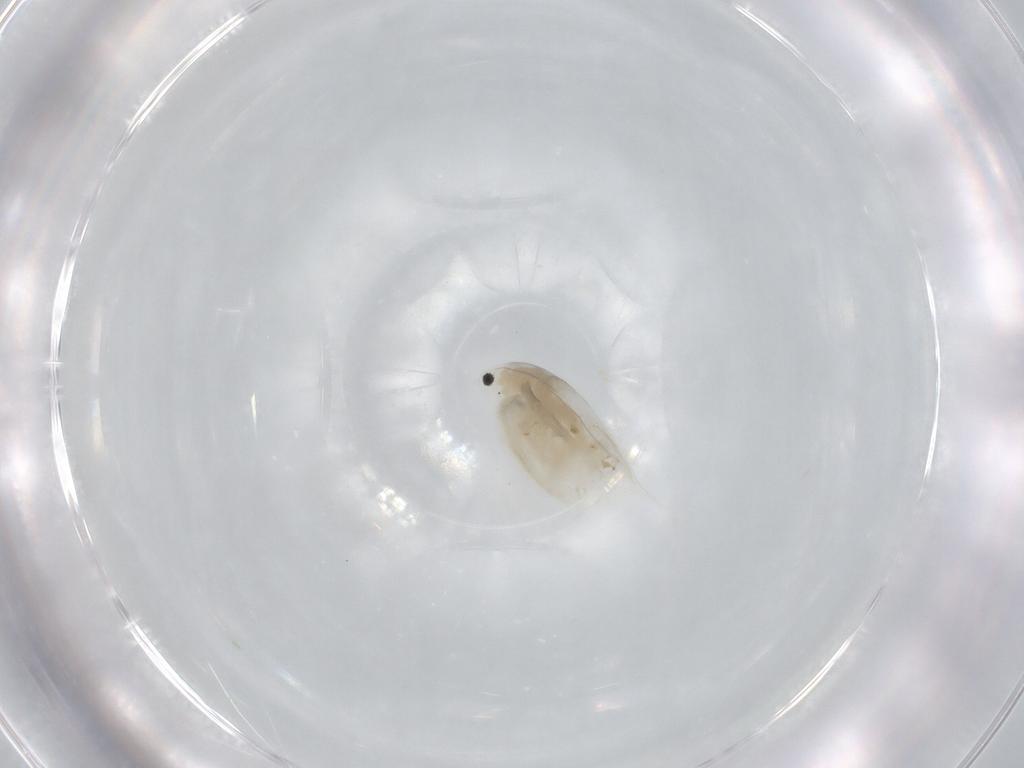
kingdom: Animalia
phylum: Arthropoda
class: Branchiopoda
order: Diplostraca
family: Daphniidae
